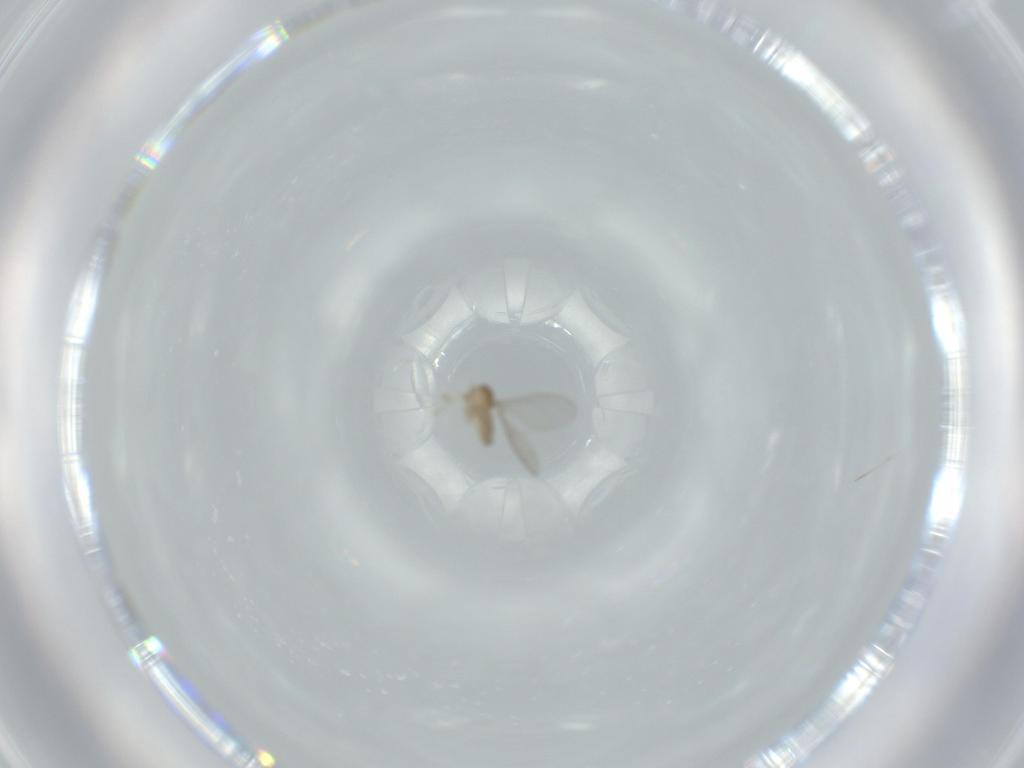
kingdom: Animalia
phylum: Arthropoda
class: Insecta
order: Diptera
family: Cecidomyiidae
